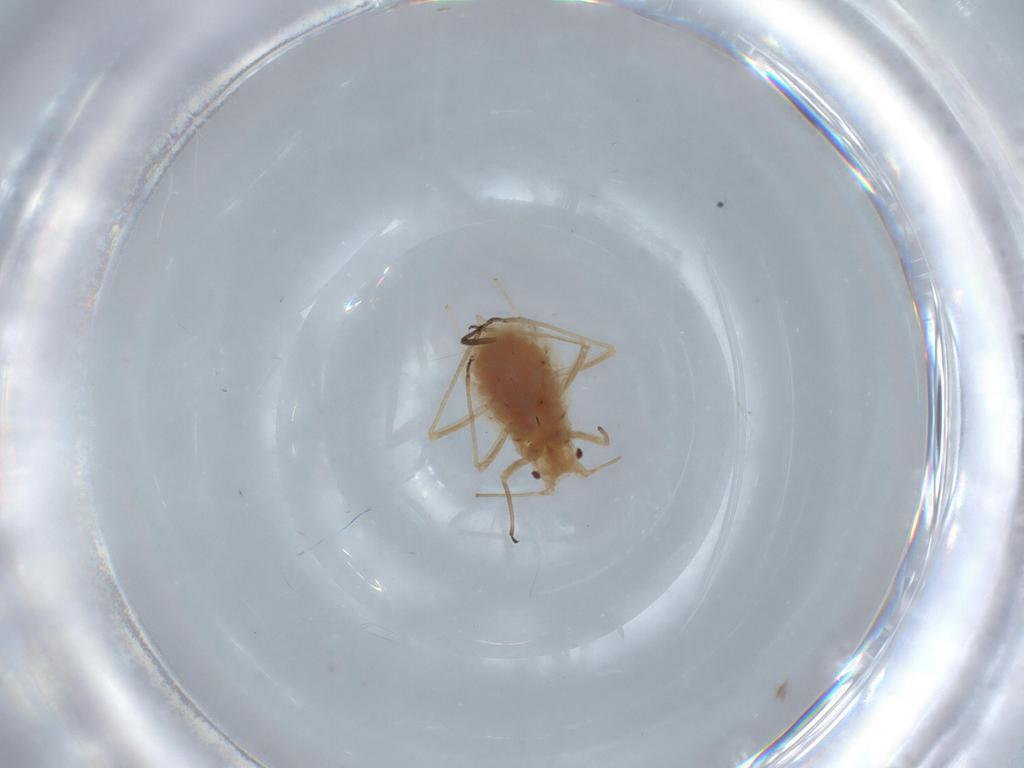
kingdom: Animalia
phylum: Arthropoda
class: Insecta
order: Hemiptera
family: Aphididae
